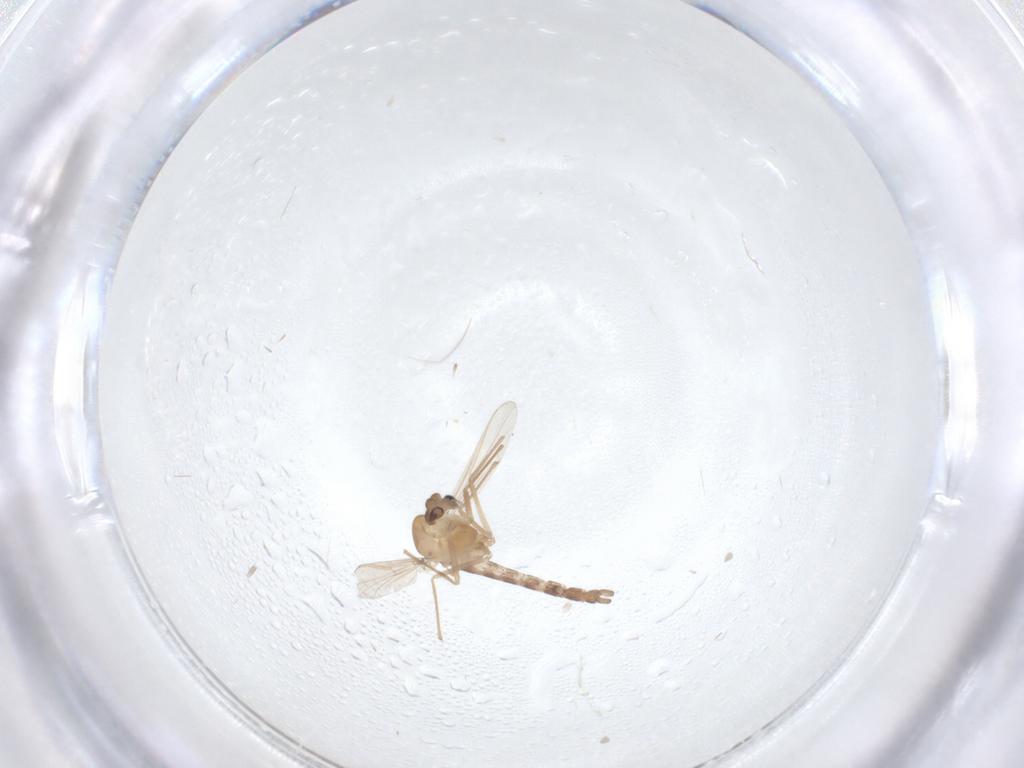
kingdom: Animalia
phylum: Arthropoda
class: Insecta
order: Diptera
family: Chironomidae
